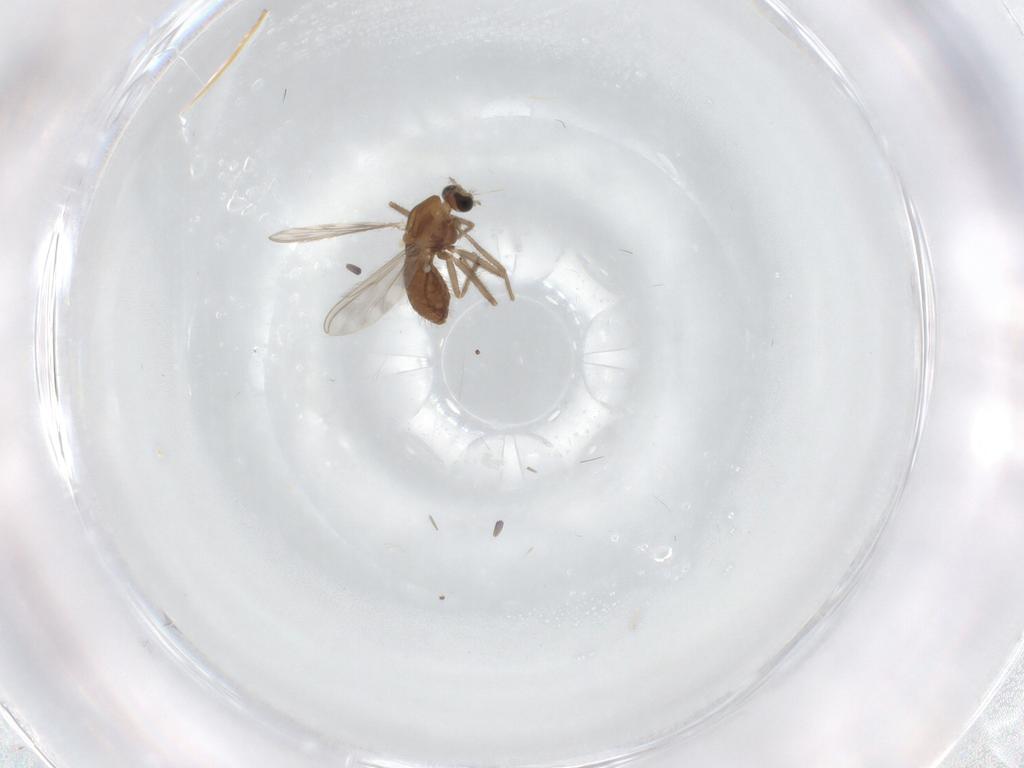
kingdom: Animalia
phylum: Arthropoda
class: Insecta
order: Diptera
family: Chironomidae
